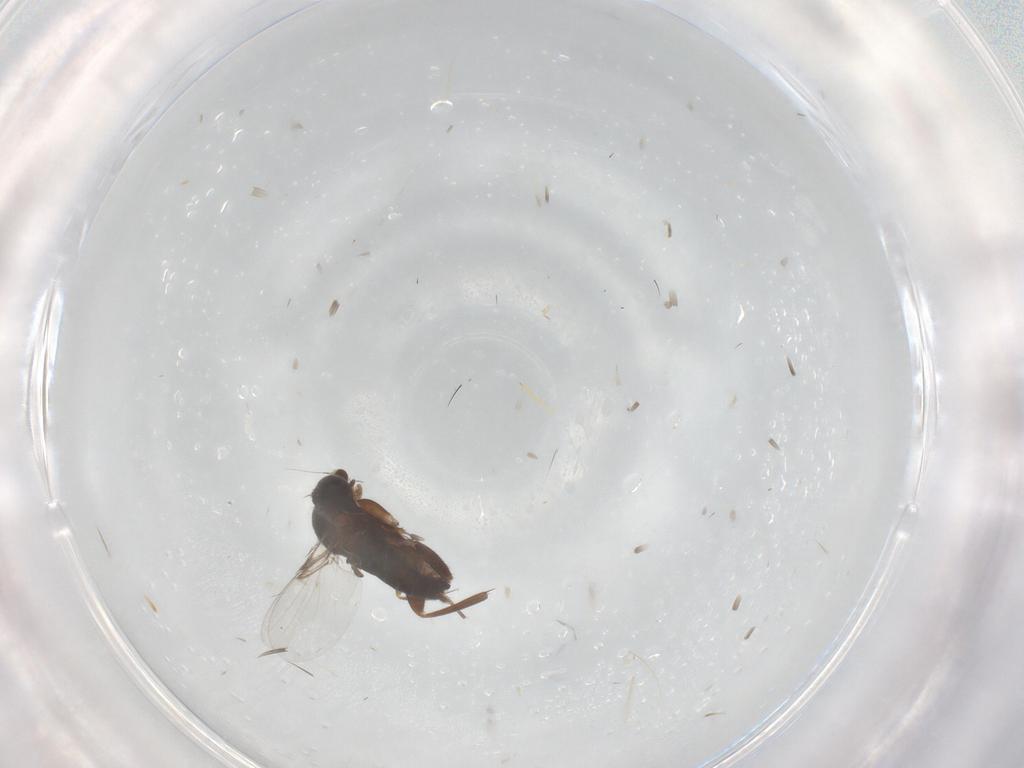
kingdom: Animalia
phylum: Arthropoda
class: Insecta
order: Diptera
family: Phoridae
